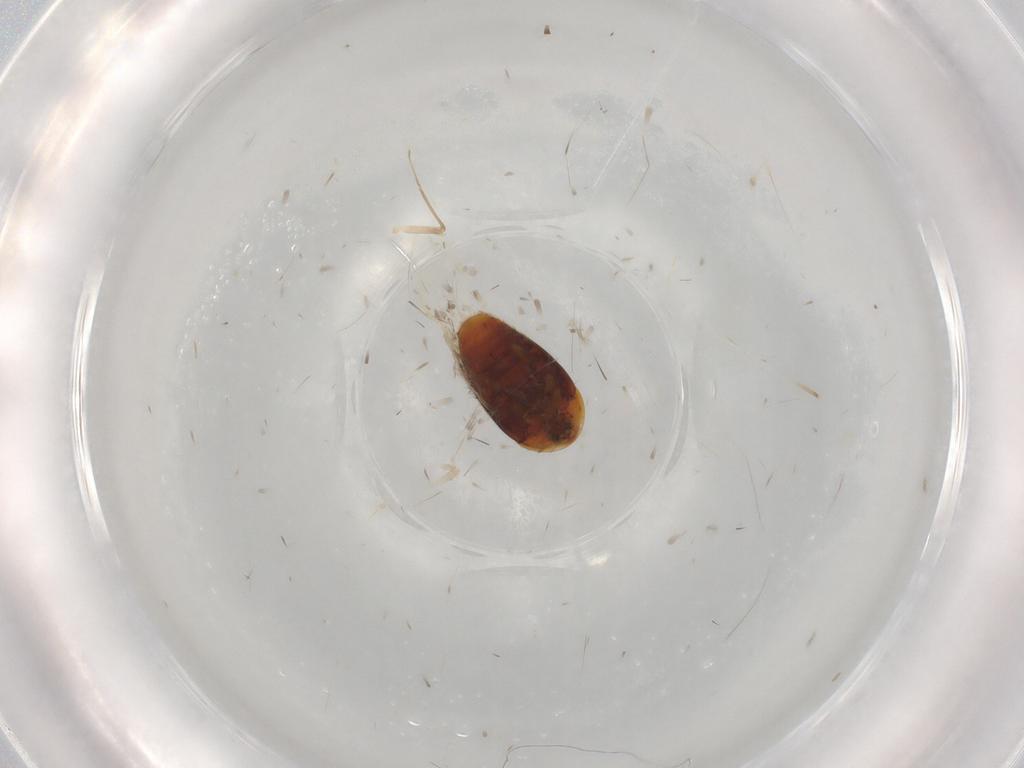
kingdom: Animalia
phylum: Arthropoda
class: Insecta
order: Coleoptera
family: Corylophidae
